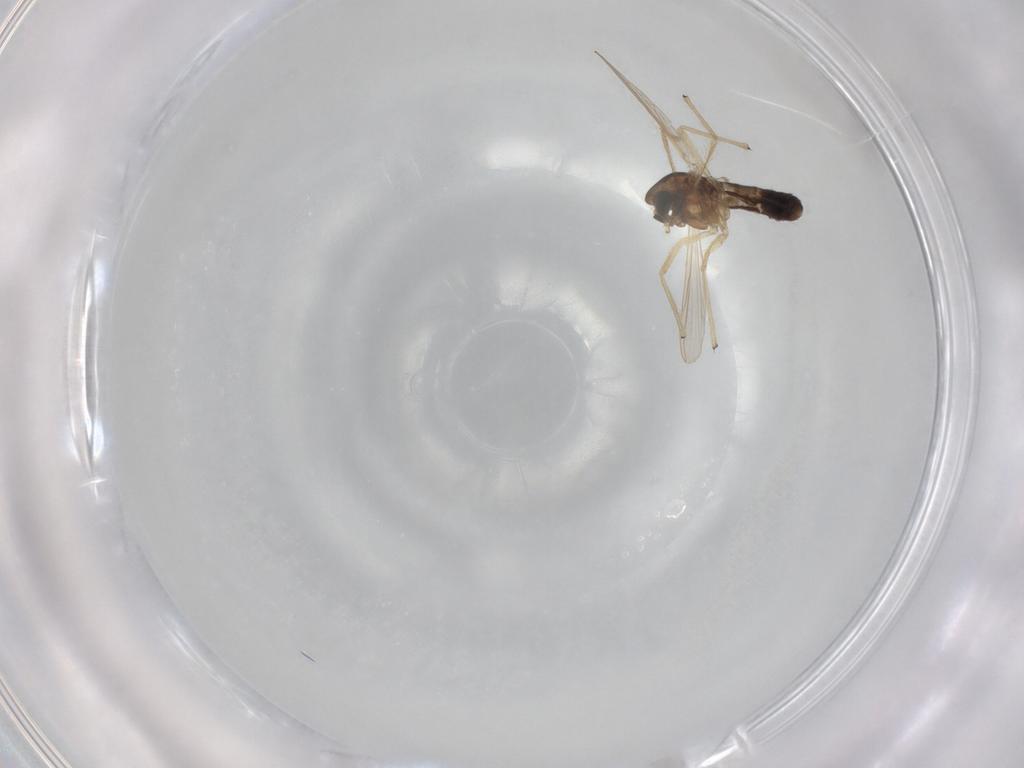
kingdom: Animalia
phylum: Arthropoda
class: Insecta
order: Diptera
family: Chironomidae
